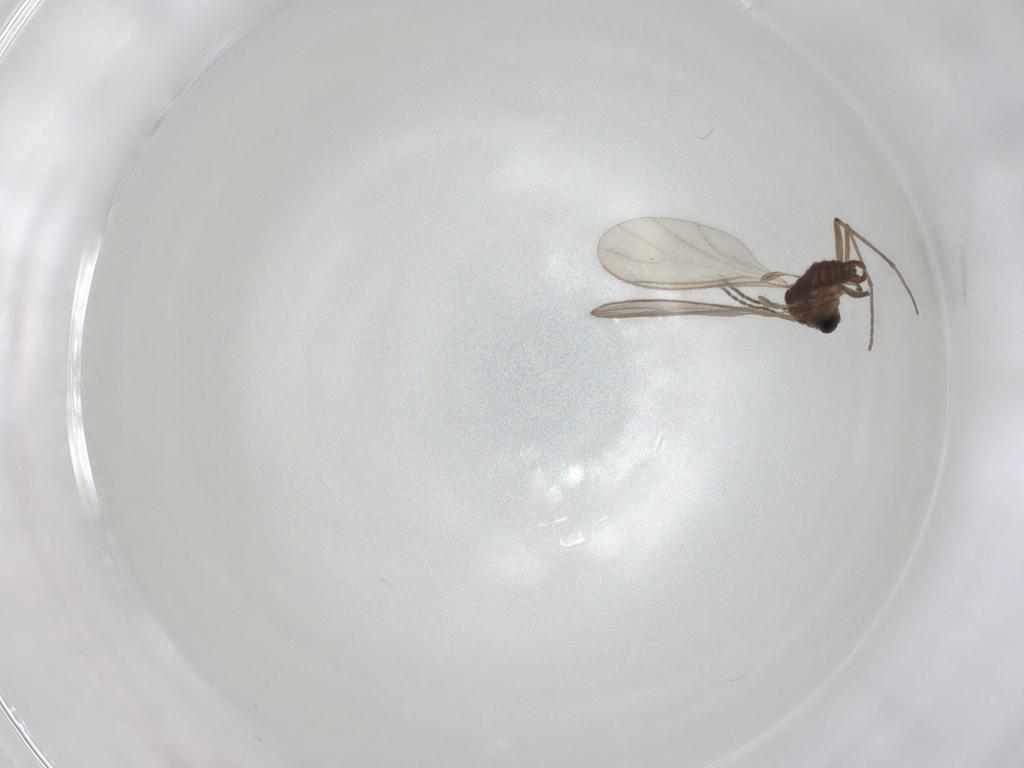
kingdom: Animalia
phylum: Arthropoda
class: Insecta
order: Diptera
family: Sciaridae
